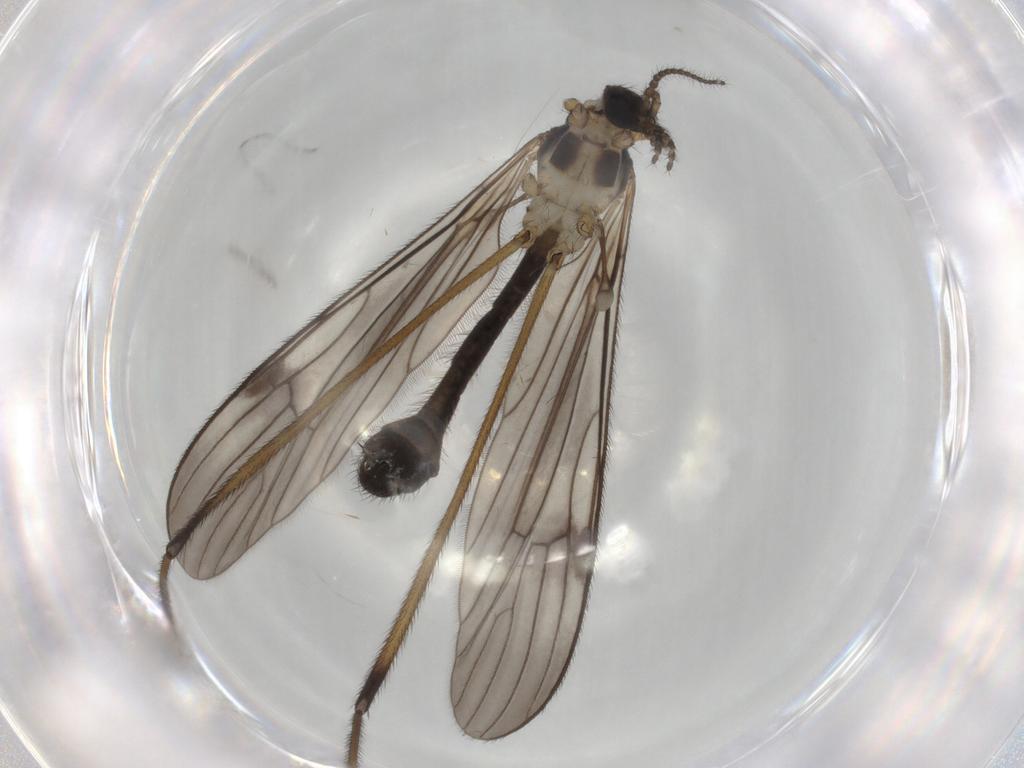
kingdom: Animalia
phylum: Arthropoda
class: Insecta
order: Diptera
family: Limoniidae
